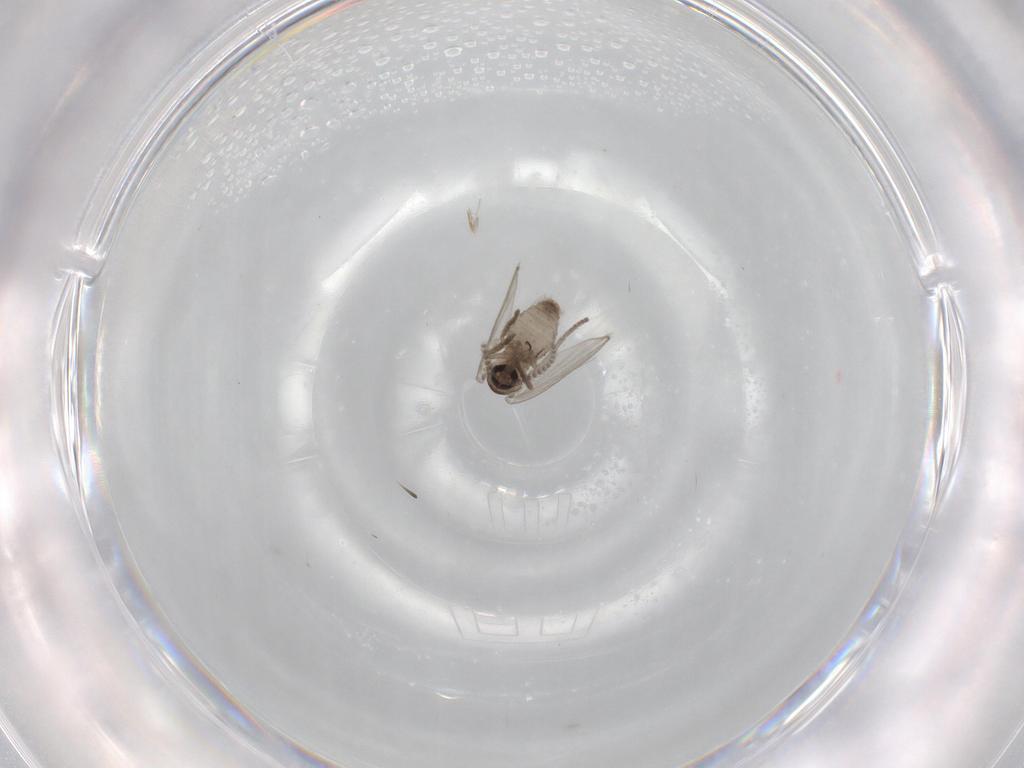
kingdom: Animalia
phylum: Arthropoda
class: Insecta
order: Diptera
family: Psychodidae
